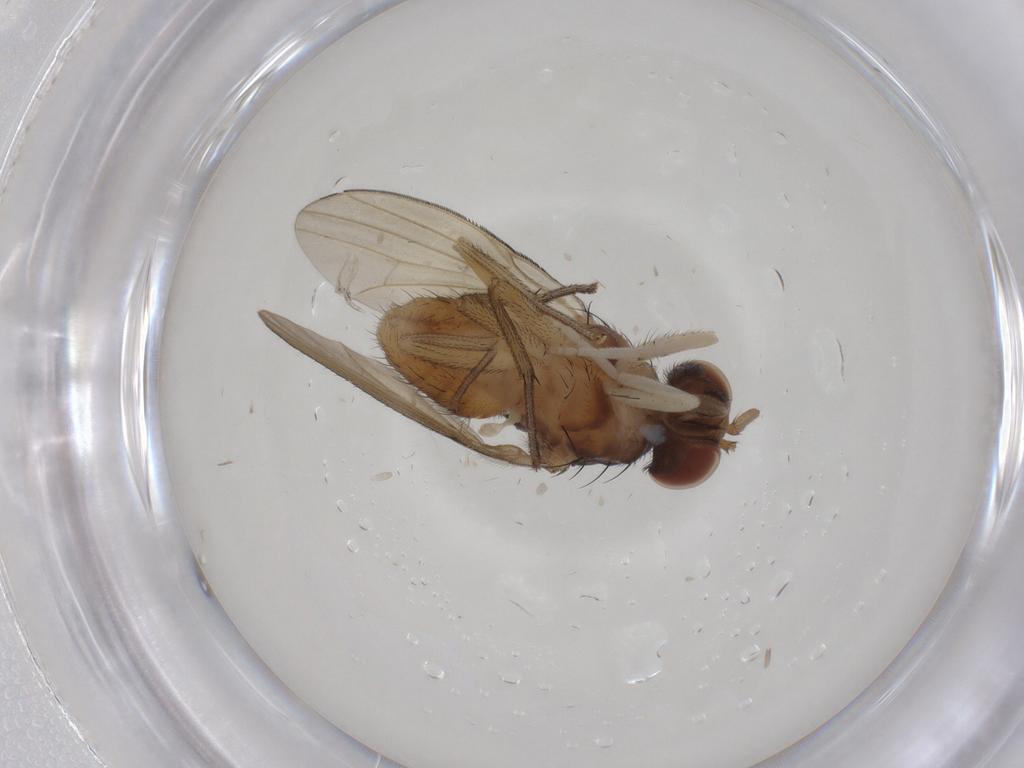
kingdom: Animalia
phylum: Arthropoda
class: Insecta
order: Diptera
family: Lauxaniidae
